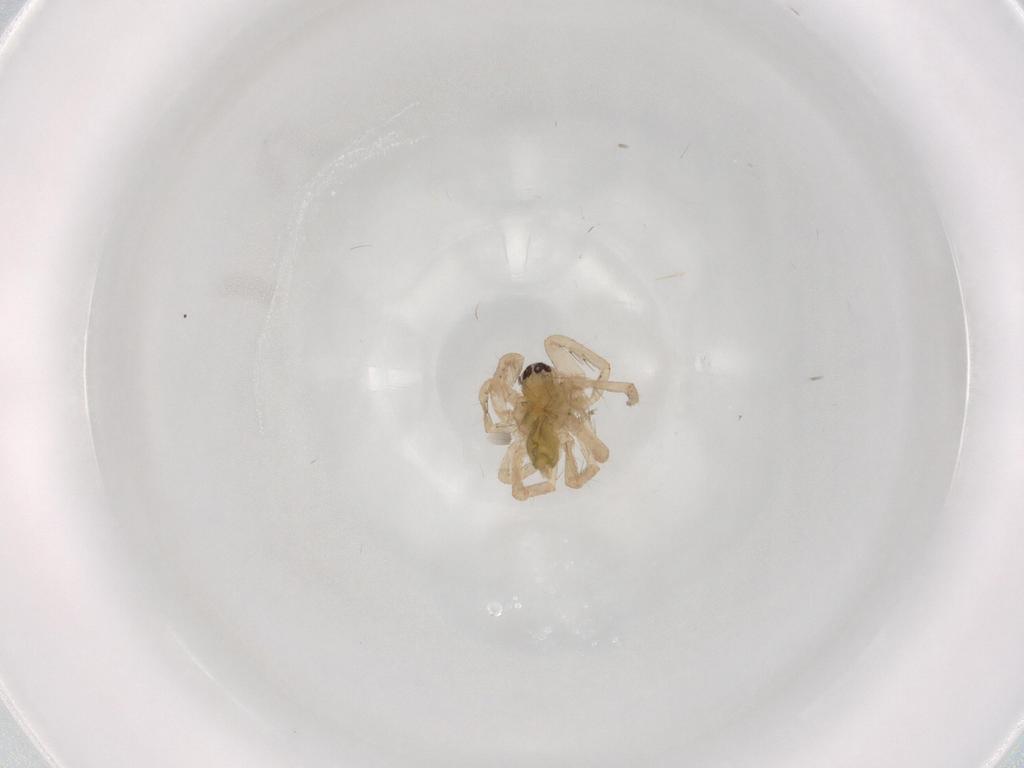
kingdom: Animalia
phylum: Arthropoda
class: Arachnida
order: Araneae
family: Anyphaenidae
